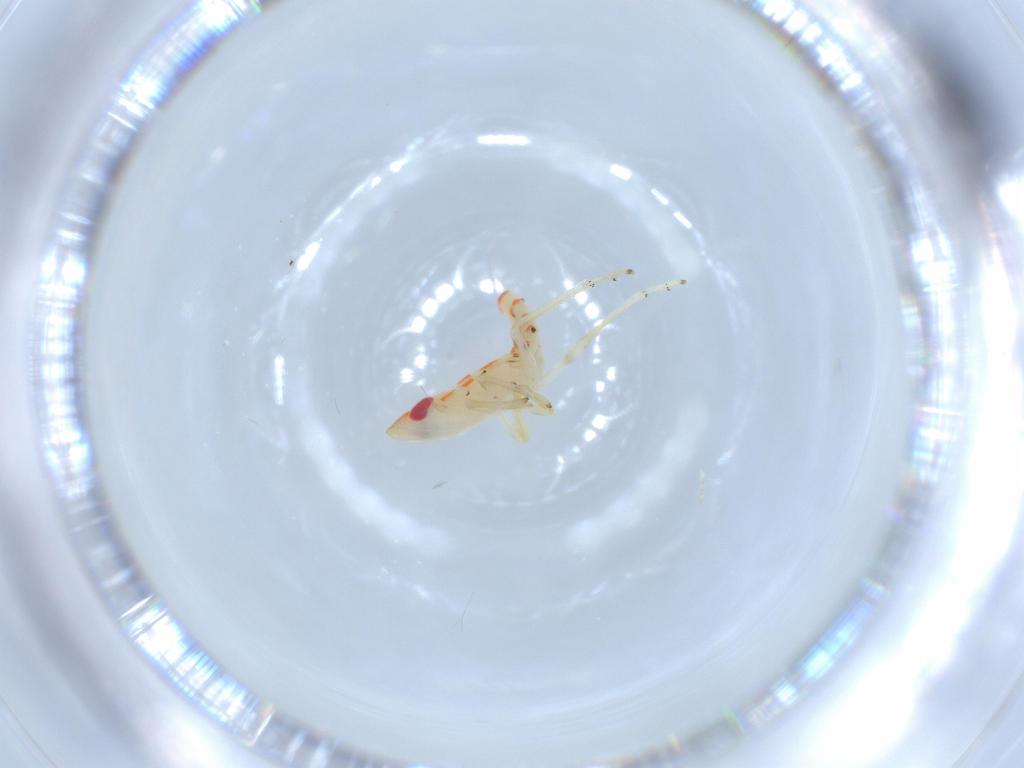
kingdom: Animalia
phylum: Arthropoda
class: Insecta
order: Hemiptera
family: Tropiduchidae
